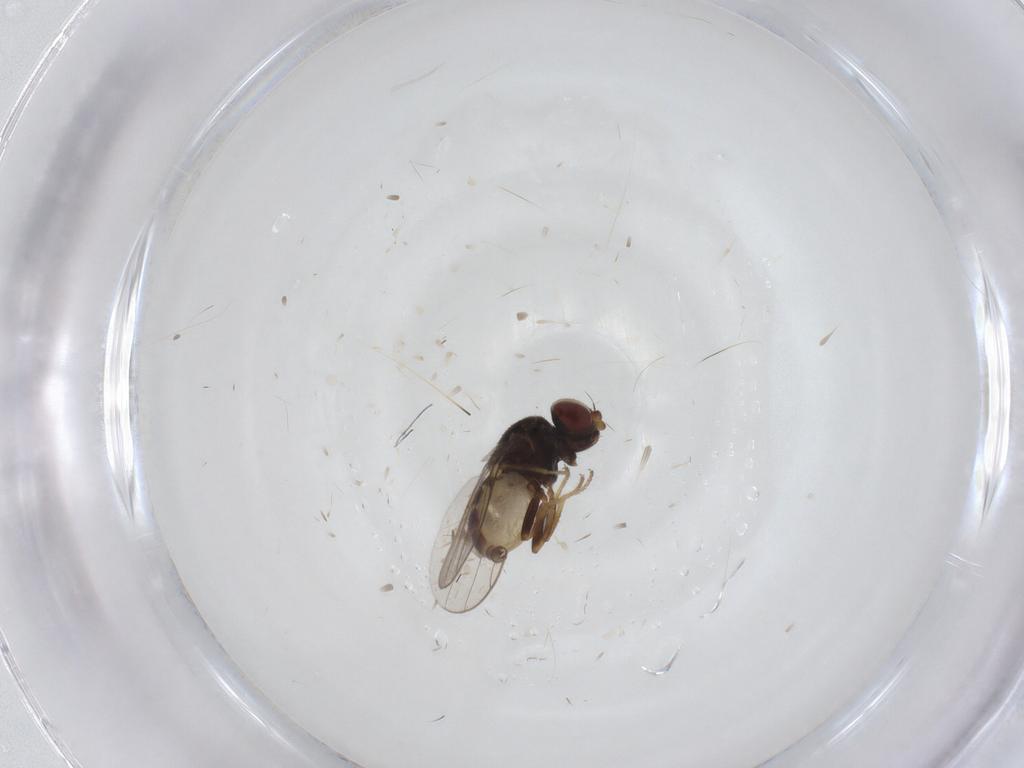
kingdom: Animalia
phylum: Arthropoda
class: Insecta
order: Diptera
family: Chloropidae
